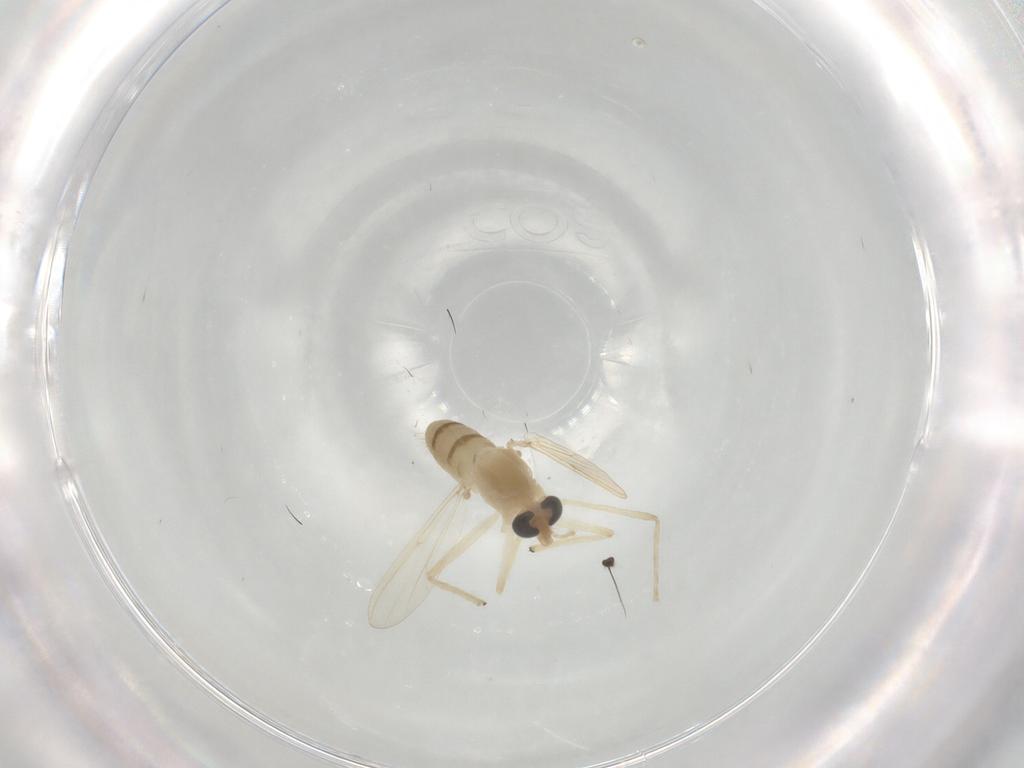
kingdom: Animalia
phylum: Arthropoda
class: Insecta
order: Diptera
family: Chironomidae
